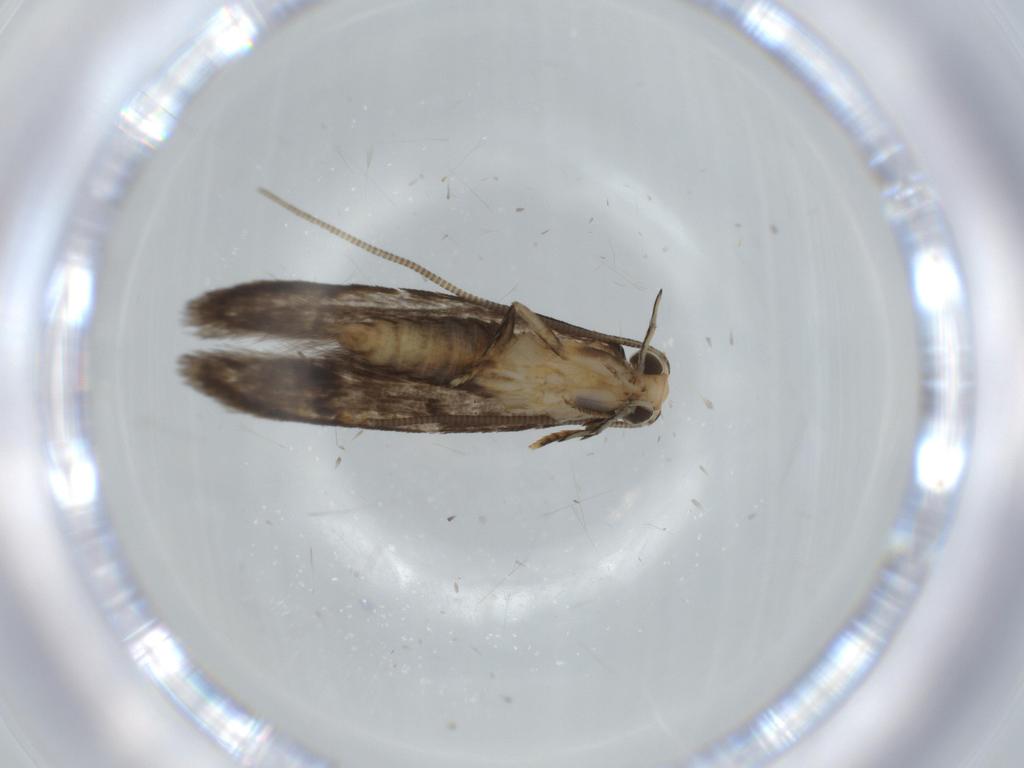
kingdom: Animalia
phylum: Arthropoda
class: Insecta
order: Lepidoptera
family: Tineidae
